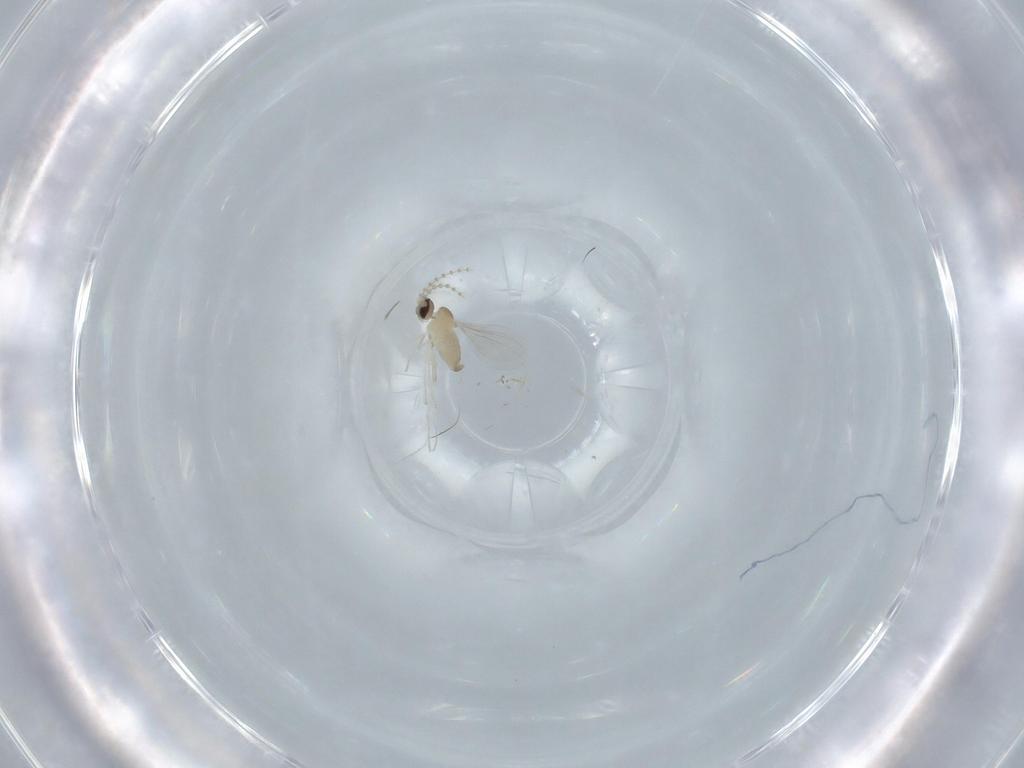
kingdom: Animalia
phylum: Arthropoda
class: Insecta
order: Diptera
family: Cecidomyiidae
